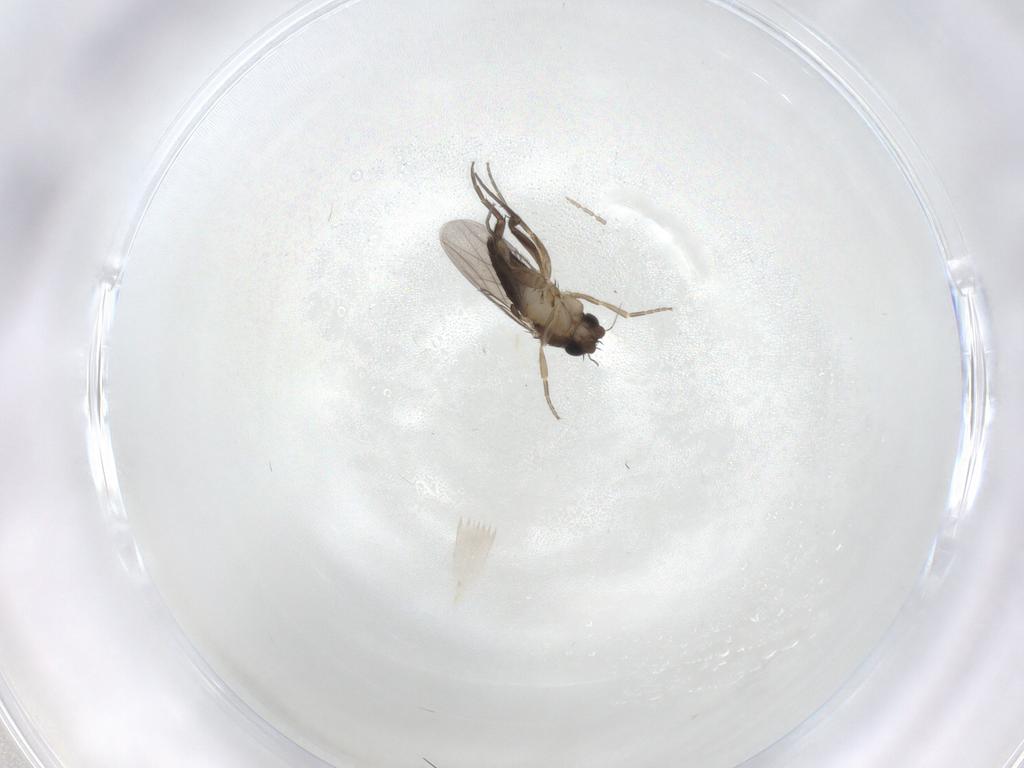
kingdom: Animalia
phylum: Arthropoda
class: Insecta
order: Diptera
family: Phoridae
